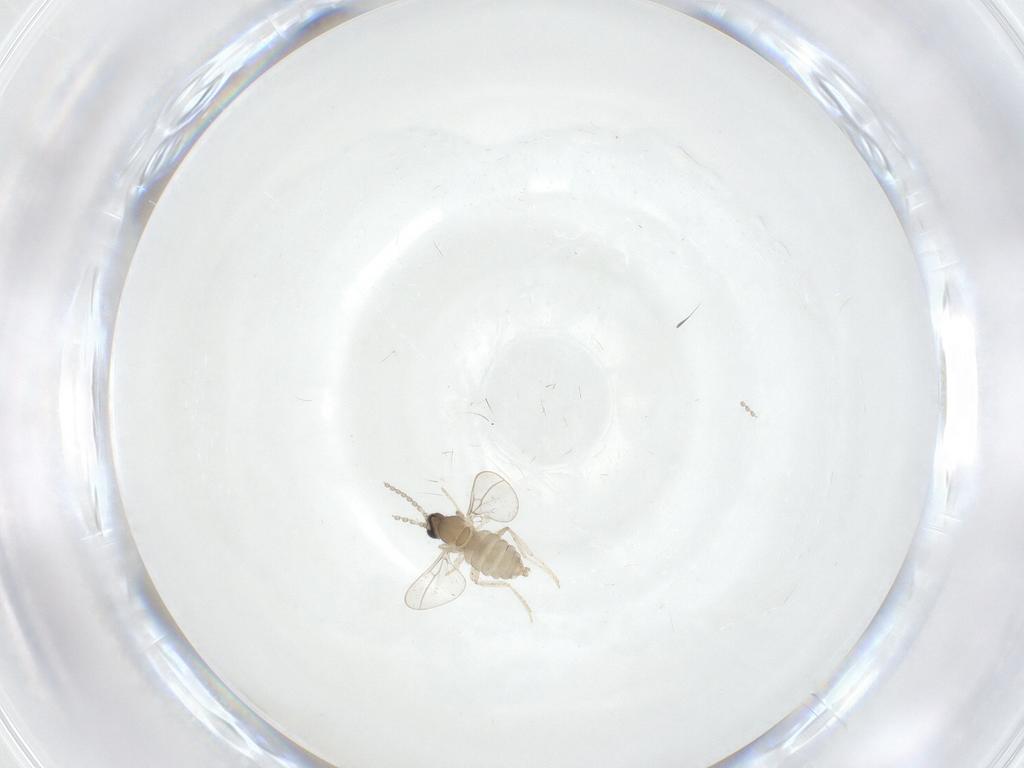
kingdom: Animalia
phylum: Arthropoda
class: Insecta
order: Diptera
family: Cecidomyiidae
